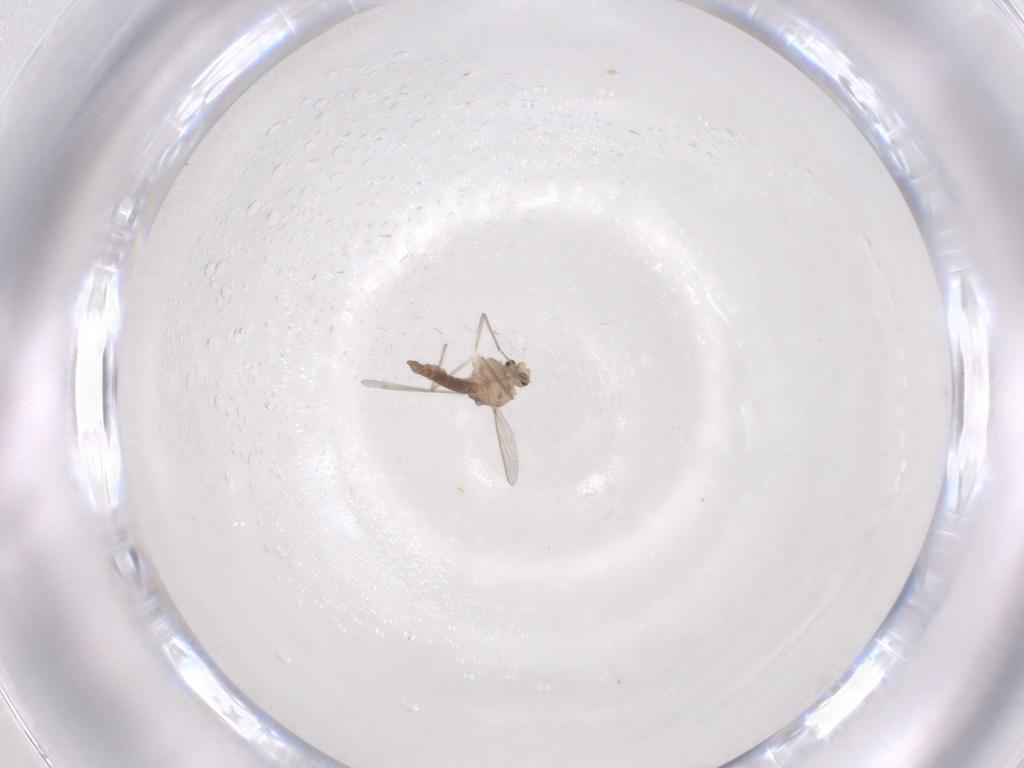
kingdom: Animalia
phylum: Arthropoda
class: Insecta
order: Diptera
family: Chironomidae
